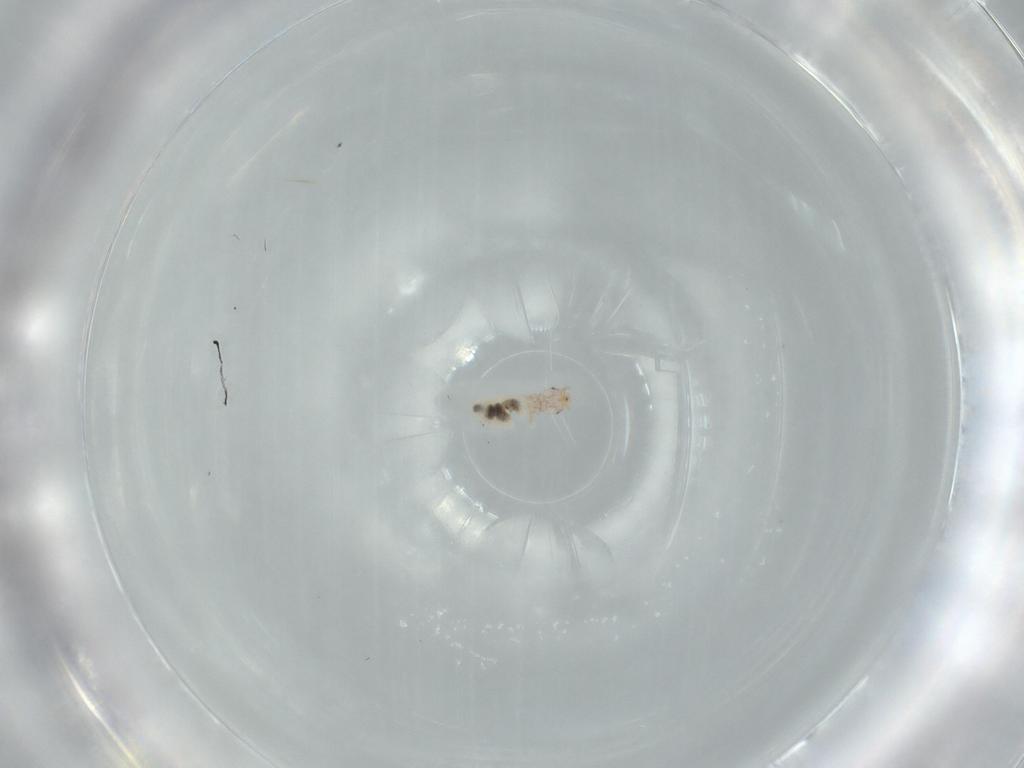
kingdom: Animalia
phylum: Arthropoda
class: Insecta
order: Psocodea
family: Liposcelididae
